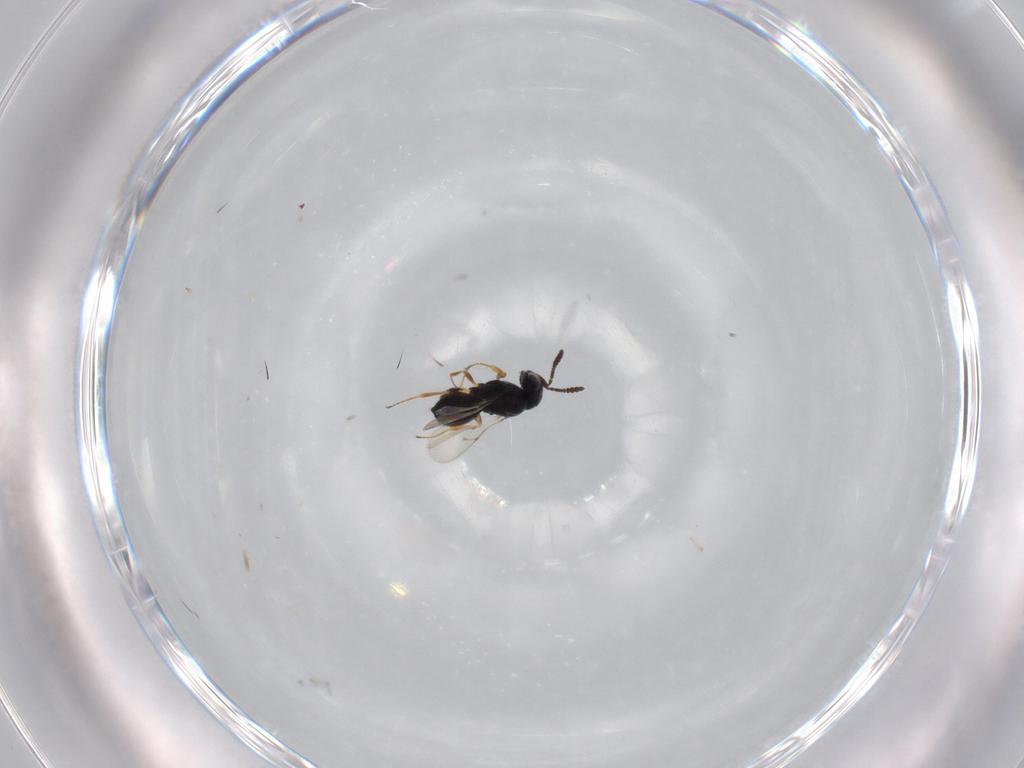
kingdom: Animalia
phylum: Arthropoda
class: Insecta
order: Hymenoptera
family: Scelionidae
